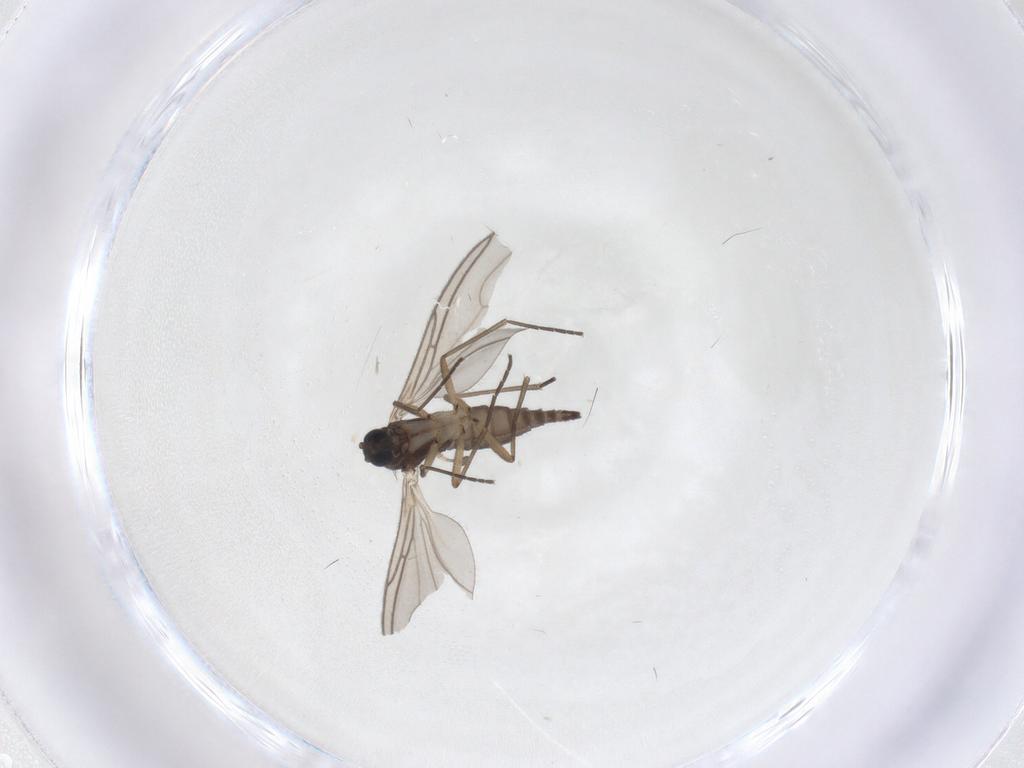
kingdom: Animalia
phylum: Arthropoda
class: Insecta
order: Diptera
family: Sciaridae
